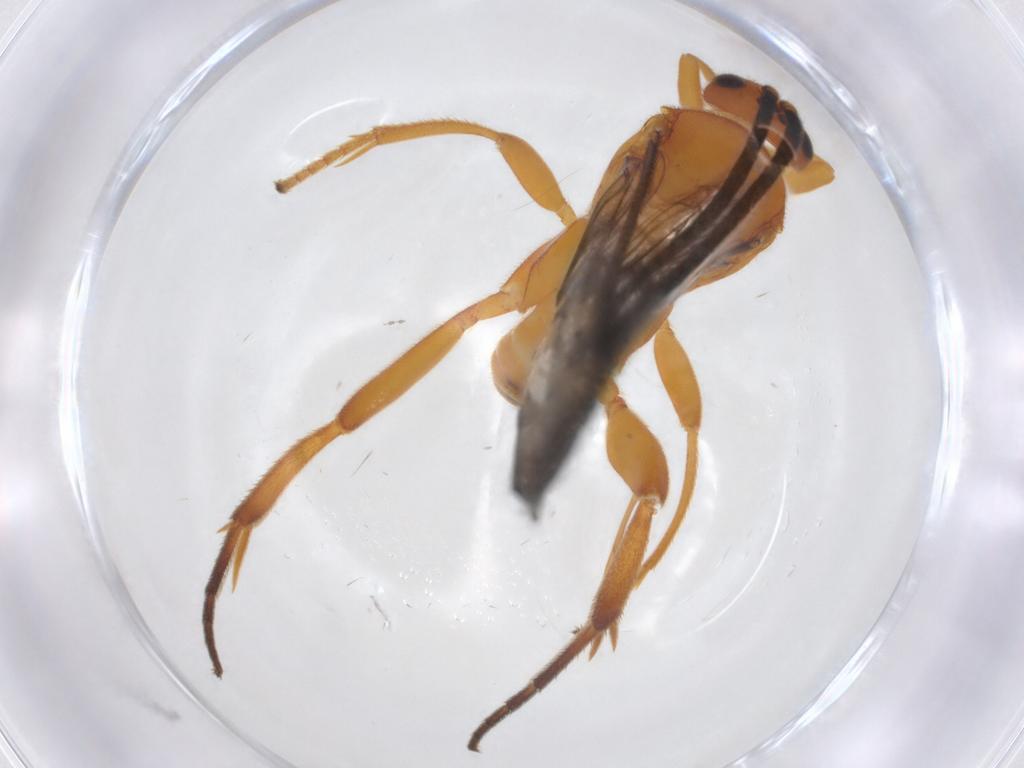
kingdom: Animalia
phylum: Arthropoda
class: Insecta
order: Hymenoptera
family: Braconidae
